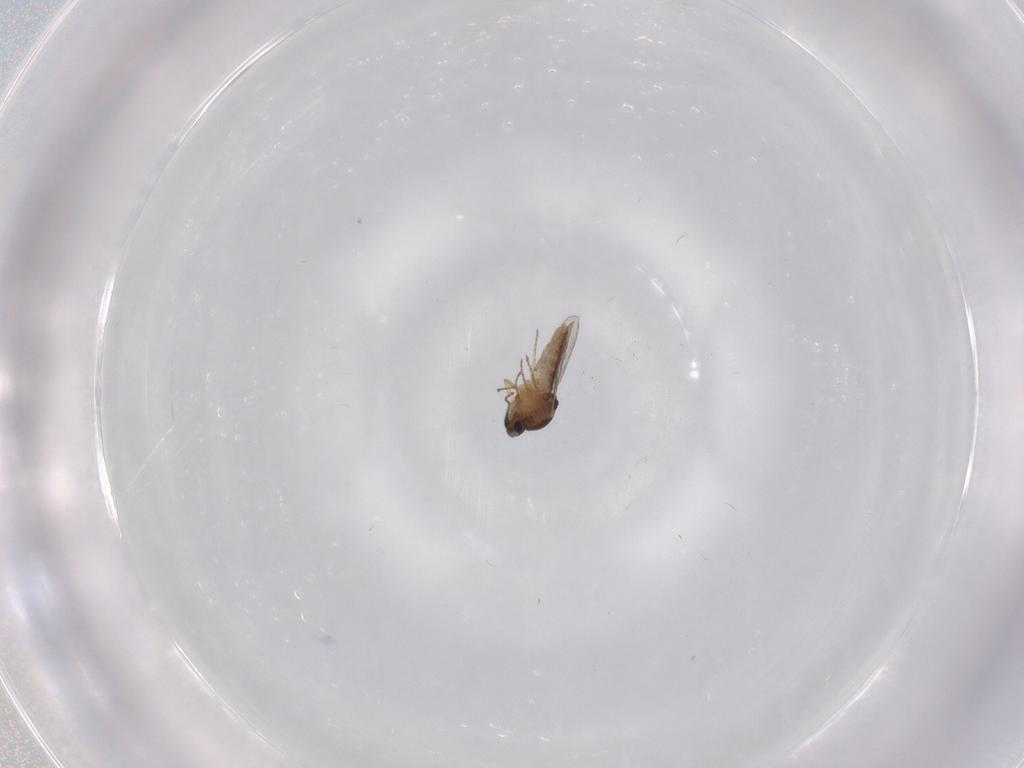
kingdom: Animalia
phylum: Arthropoda
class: Insecta
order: Diptera
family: Ceratopogonidae
